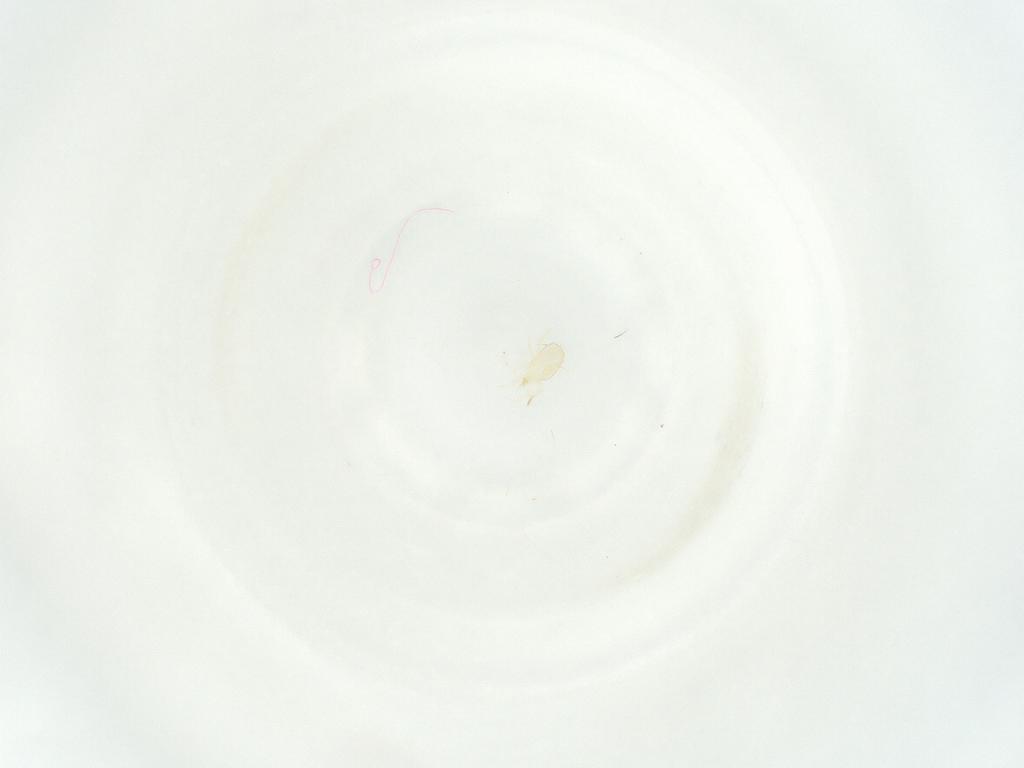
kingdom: Animalia
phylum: Arthropoda
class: Arachnida
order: Mesostigmata
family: Phytoseiidae
